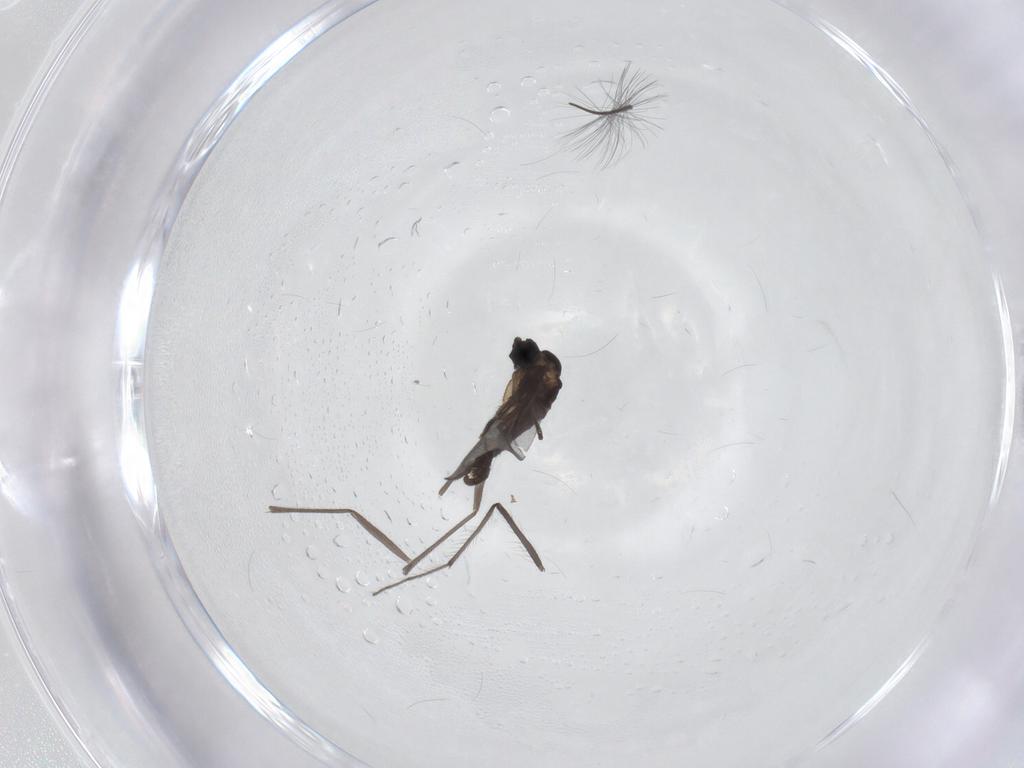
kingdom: Animalia
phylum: Arthropoda
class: Insecta
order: Diptera
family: Sciaridae
